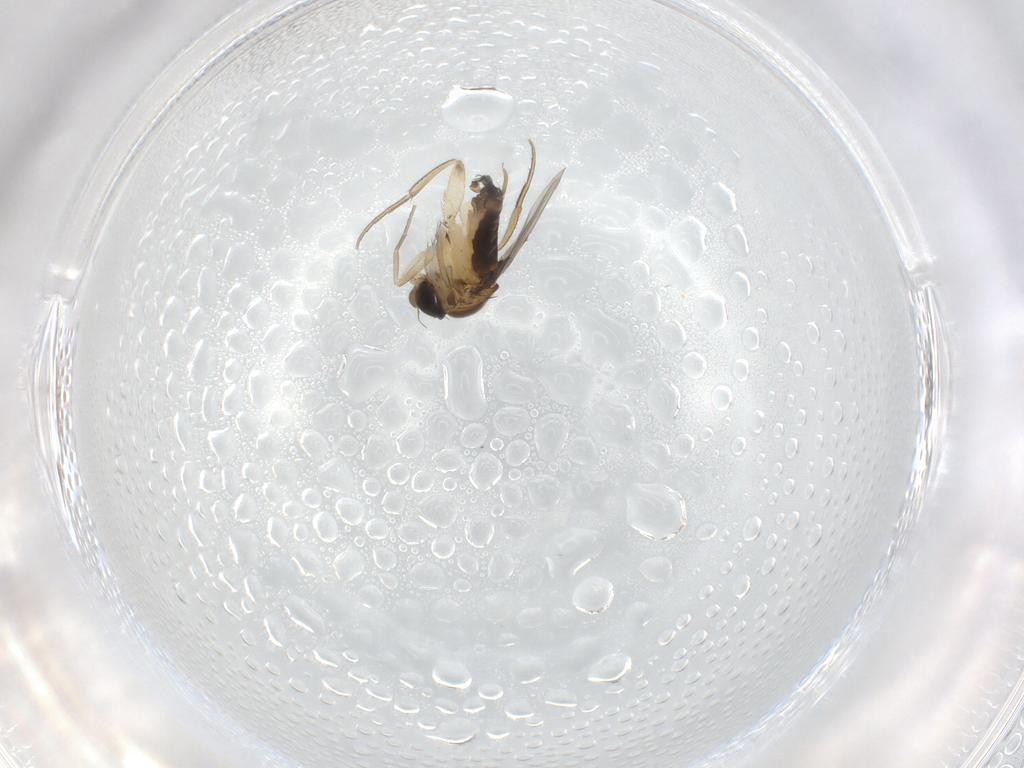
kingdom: Animalia
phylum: Arthropoda
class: Insecta
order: Diptera
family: Phoridae
